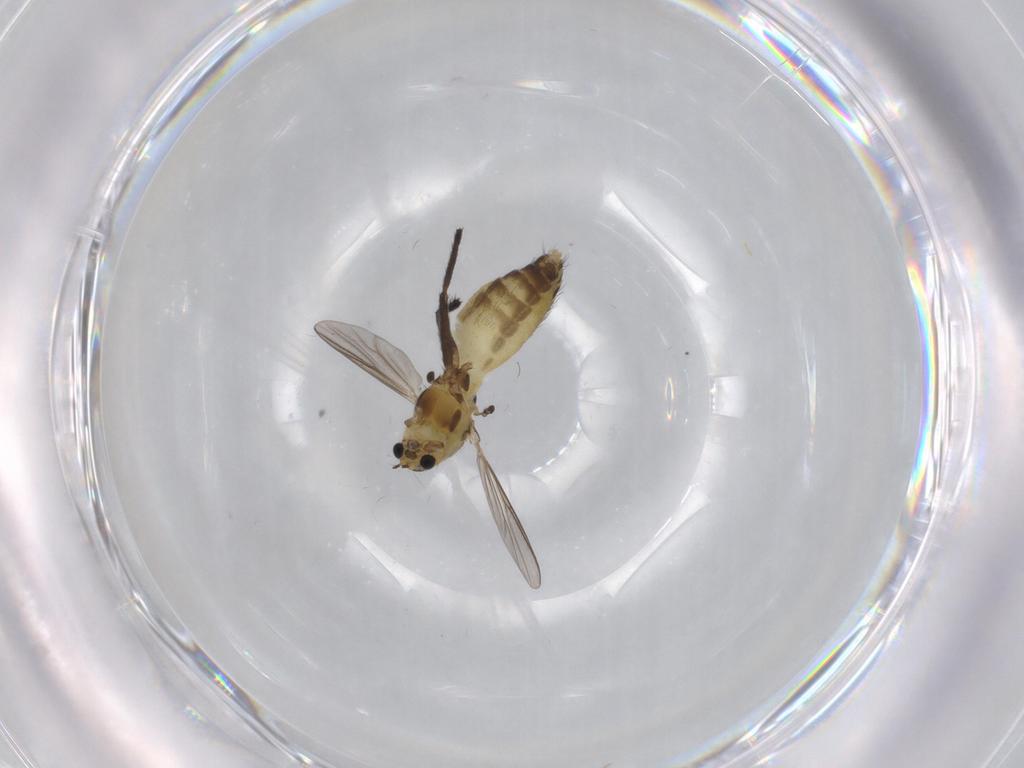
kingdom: Animalia
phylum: Arthropoda
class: Insecta
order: Diptera
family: Chironomidae
